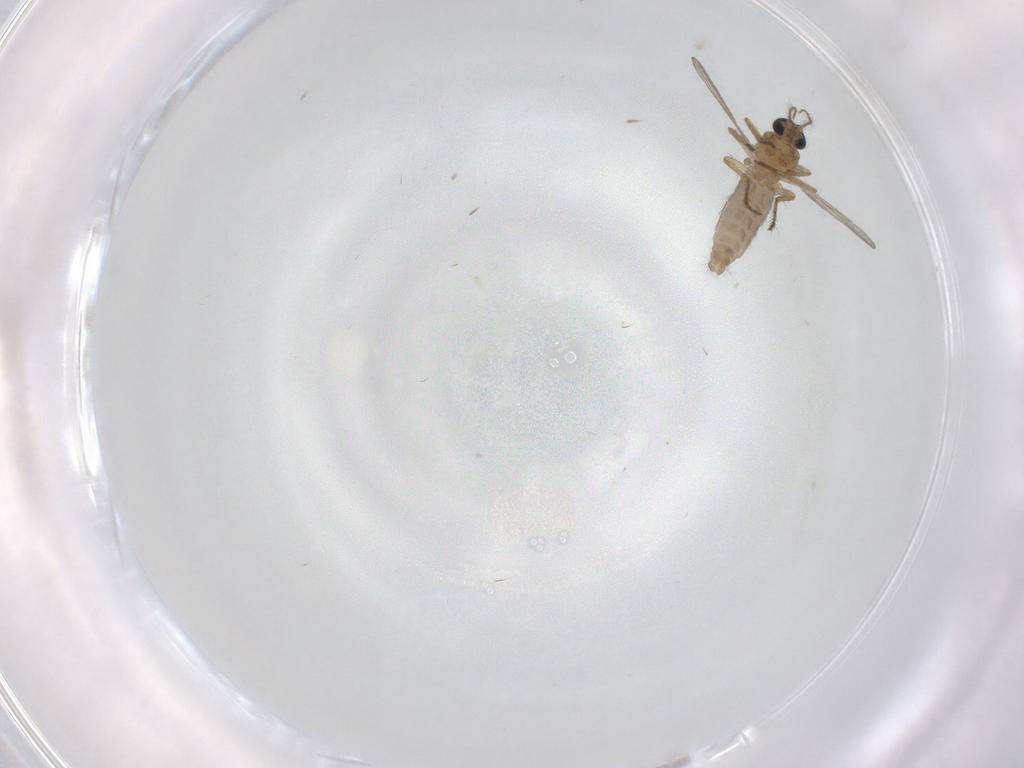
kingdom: Animalia
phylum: Arthropoda
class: Insecta
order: Diptera
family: Ceratopogonidae
